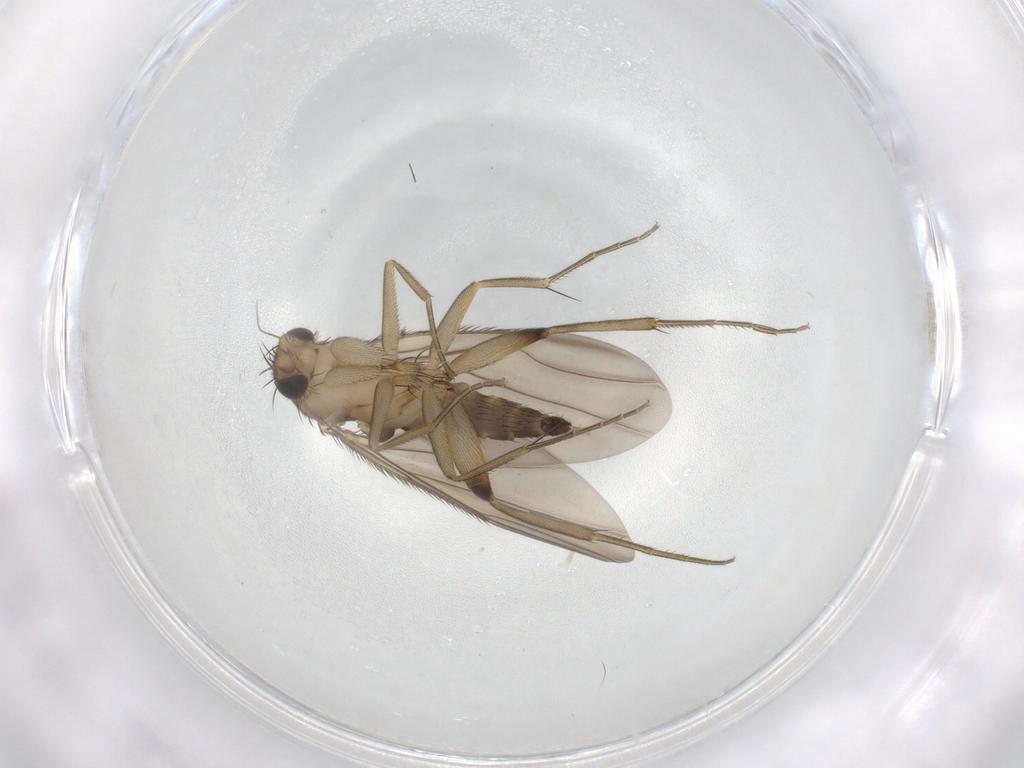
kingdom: Animalia
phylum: Arthropoda
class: Insecta
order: Diptera
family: Phoridae
